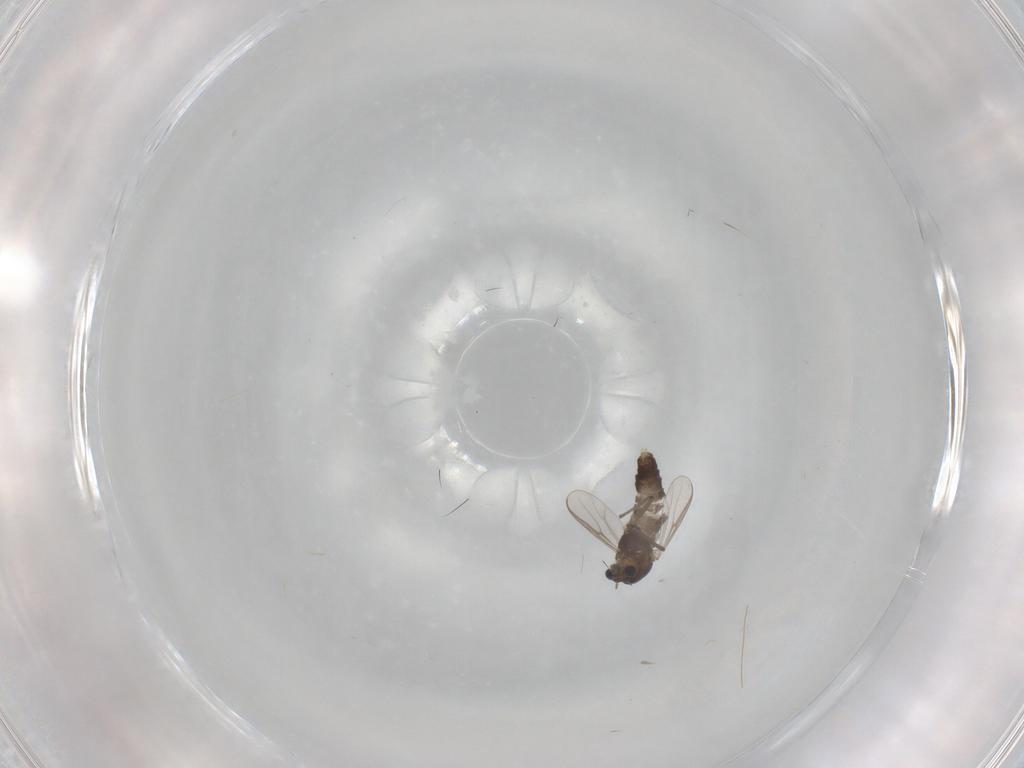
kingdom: Animalia
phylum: Arthropoda
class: Insecta
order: Diptera
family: Chironomidae
